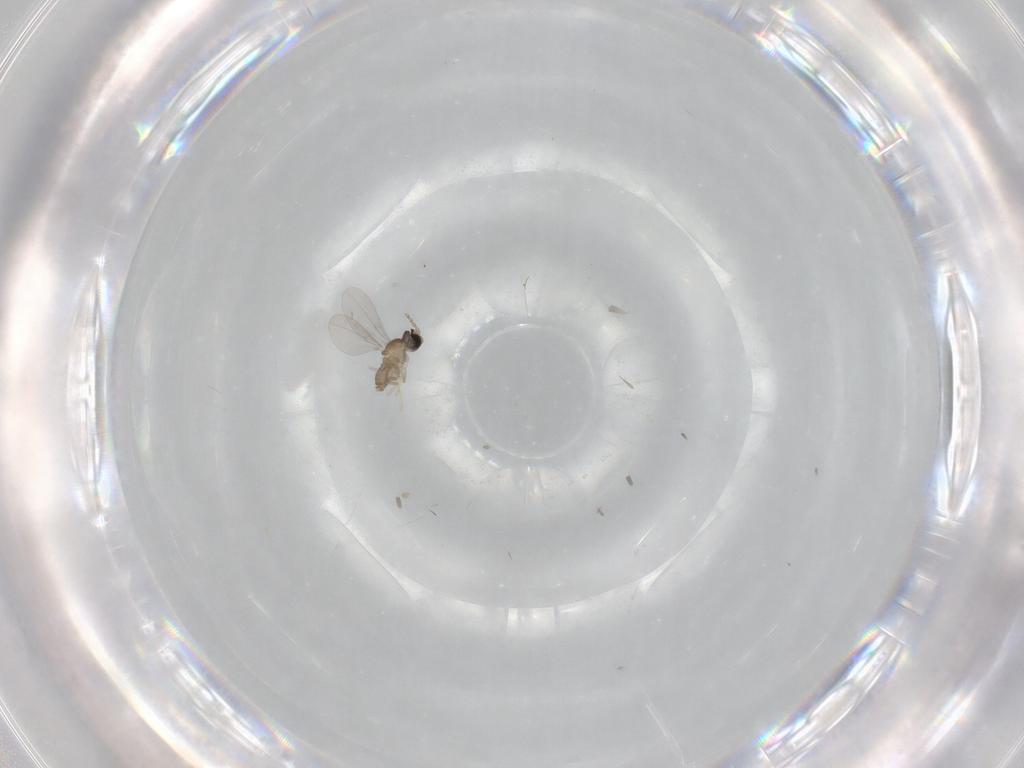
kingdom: Animalia
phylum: Arthropoda
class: Insecta
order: Diptera
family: Cecidomyiidae
